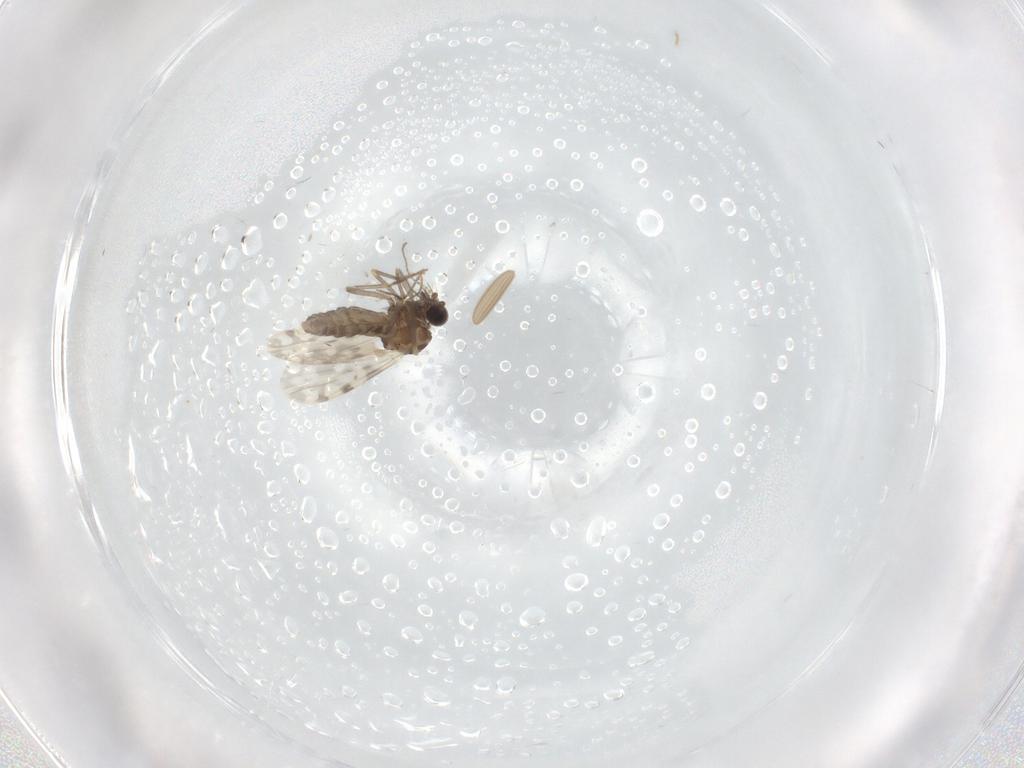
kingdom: Animalia
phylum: Arthropoda
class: Insecta
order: Diptera
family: Ceratopogonidae
